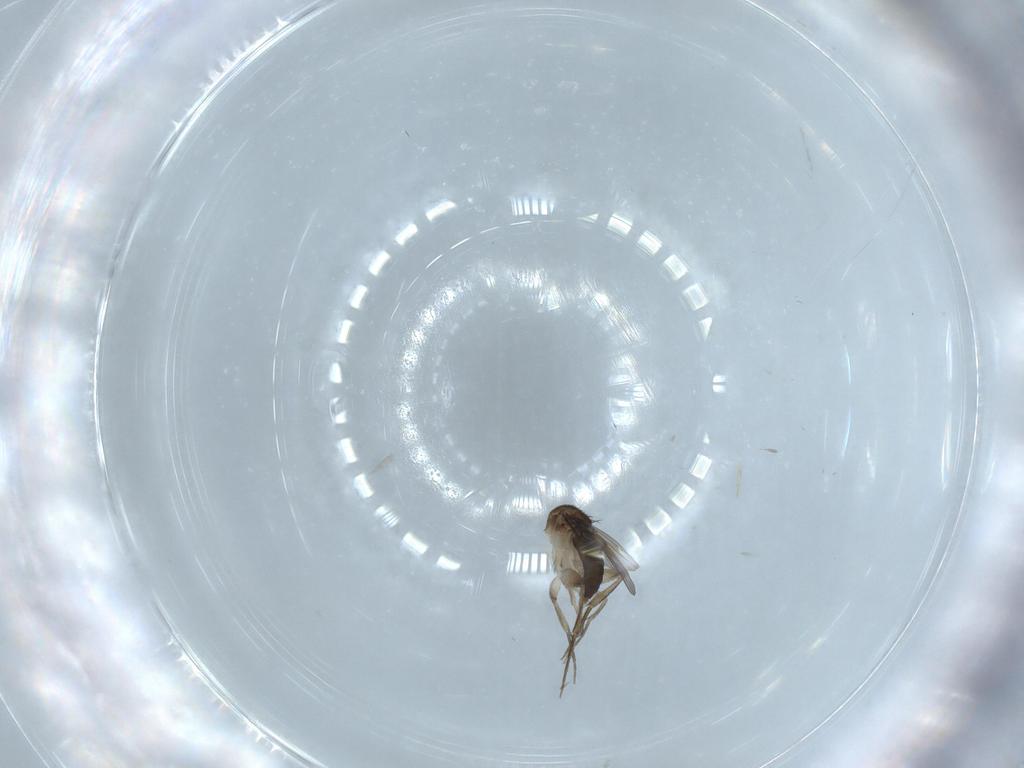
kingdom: Animalia
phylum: Arthropoda
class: Insecta
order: Diptera
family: Phoridae
